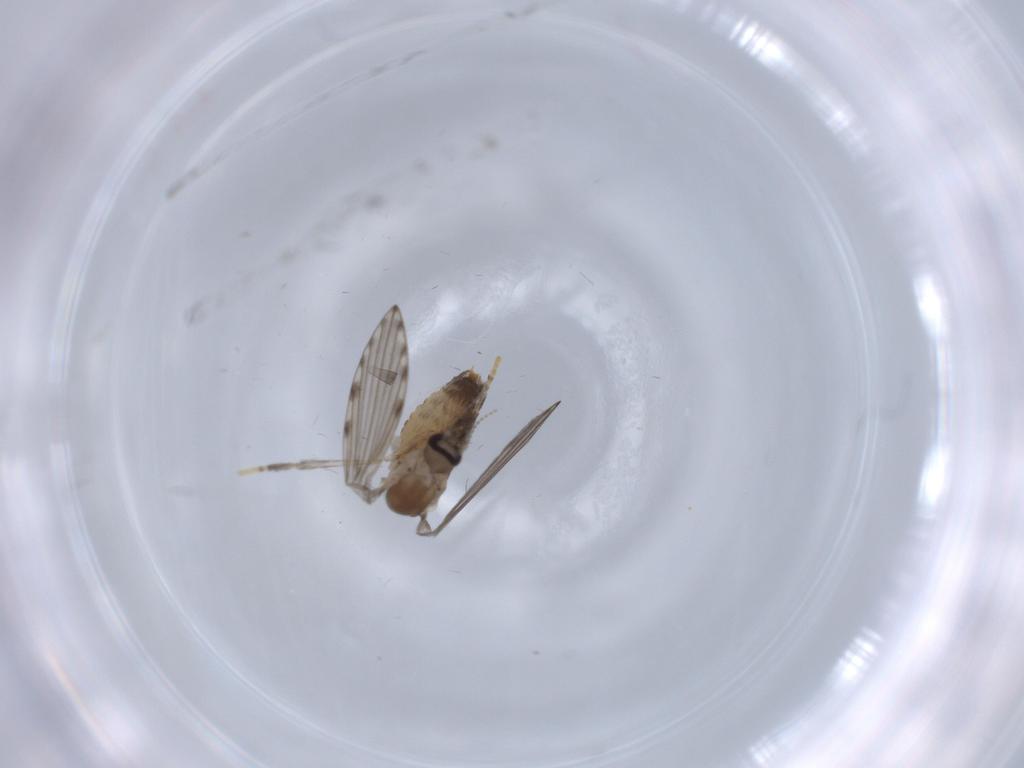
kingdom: Animalia
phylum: Arthropoda
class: Insecta
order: Diptera
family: Psychodidae
